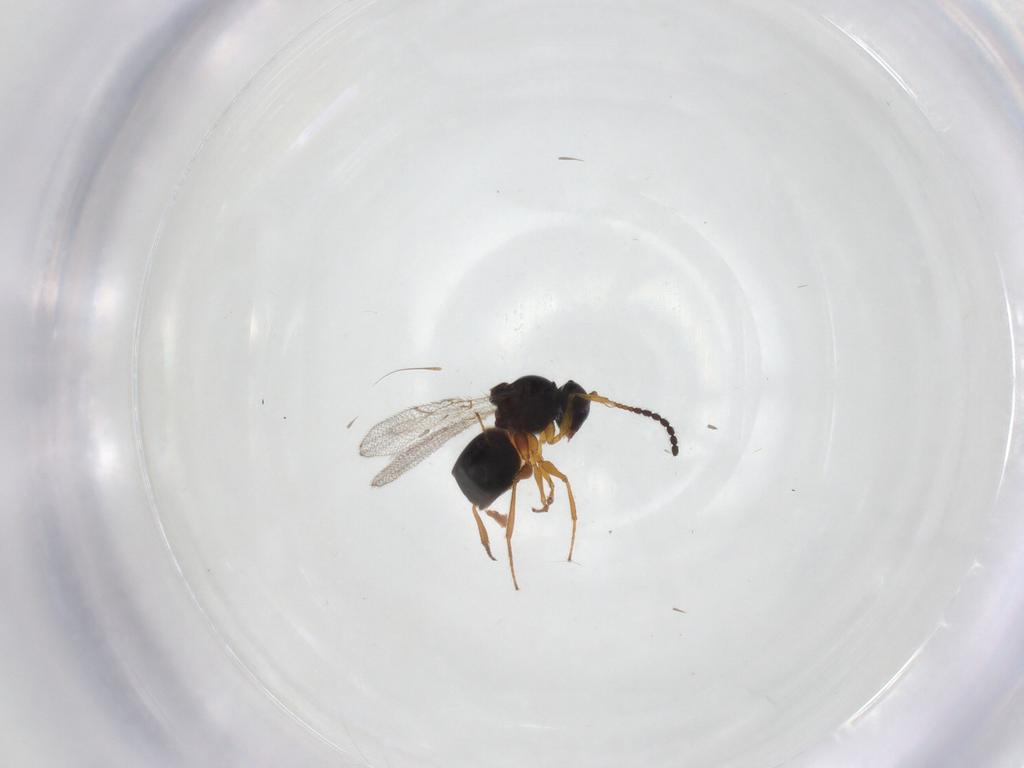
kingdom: Animalia
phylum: Arthropoda
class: Insecta
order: Hymenoptera
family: Figitidae
